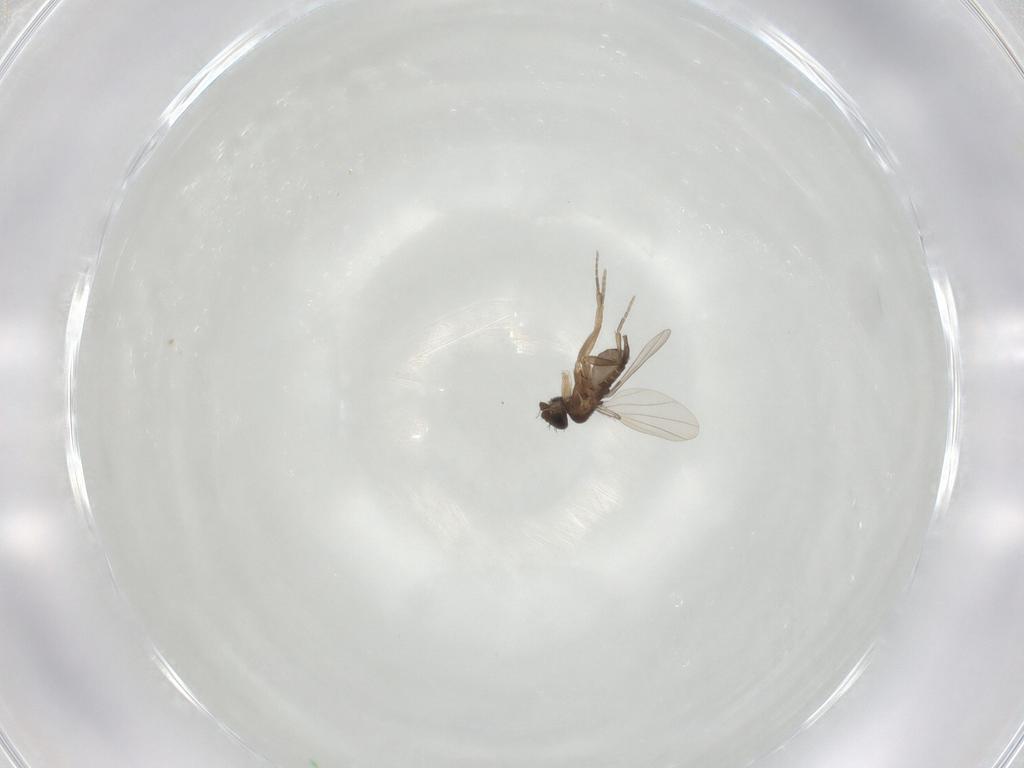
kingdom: Animalia
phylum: Arthropoda
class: Insecta
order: Diptera
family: Phoridae
